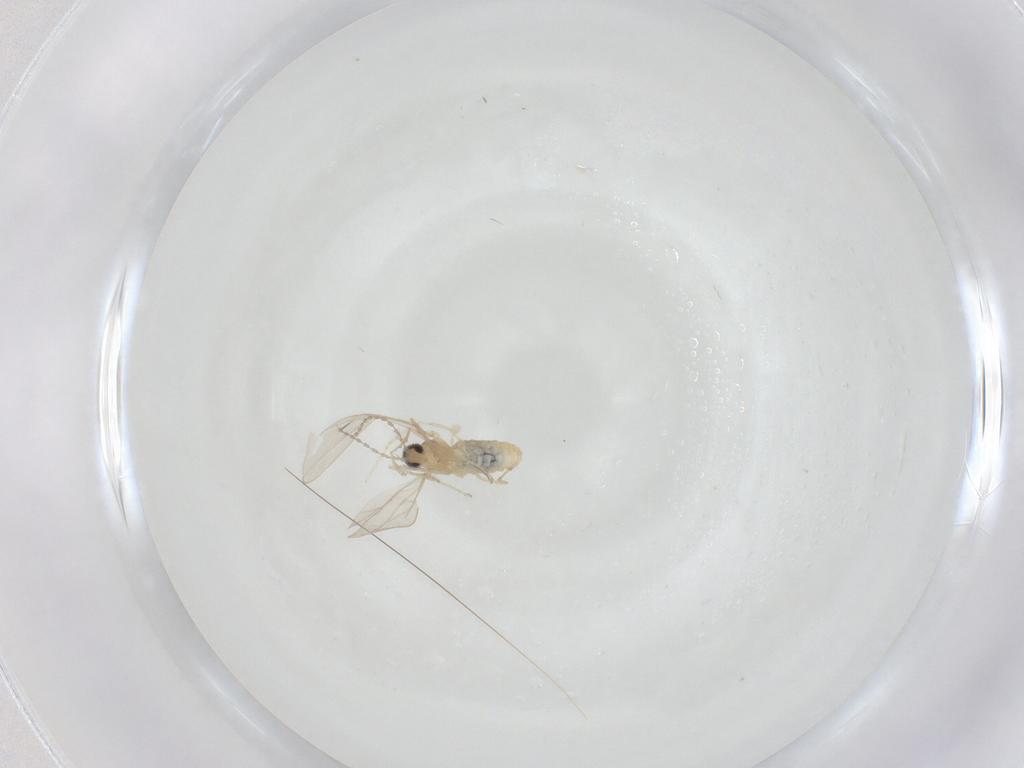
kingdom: Animalia
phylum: Arthropoda
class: Insecta
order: Diptera
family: Cecidomyiidae
